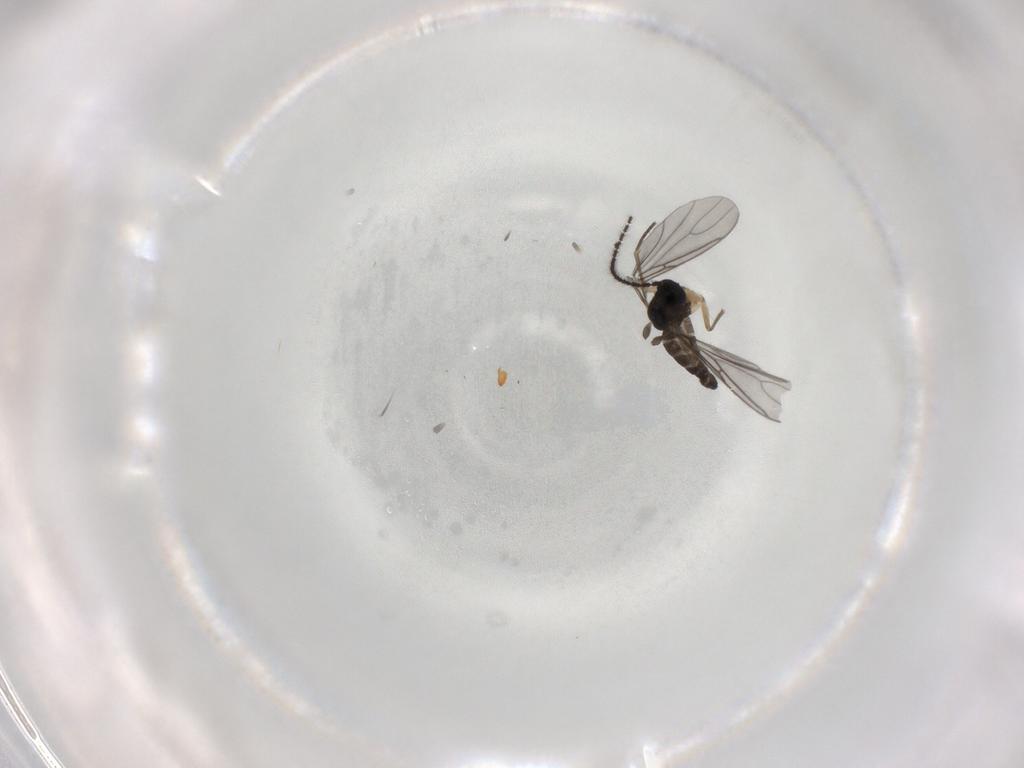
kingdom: Animalia
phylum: Arthropoda
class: Insecta
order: Diptera
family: Sciaridae
